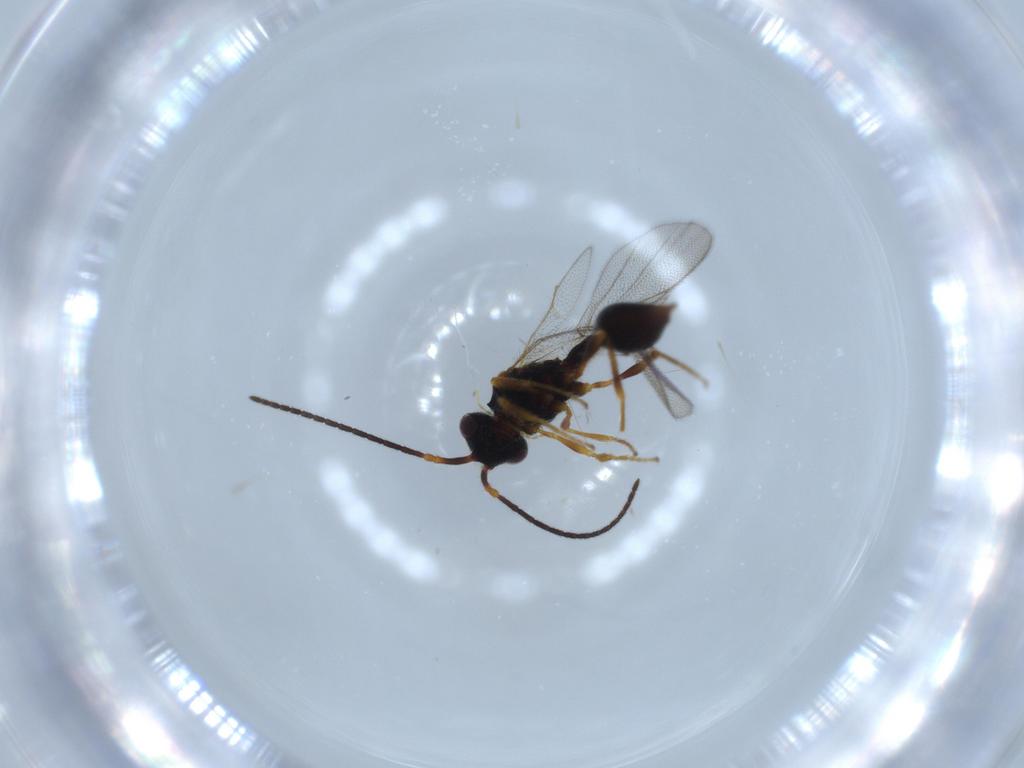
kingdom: Animalia
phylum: Arthropoda
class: Insecta
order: Hymenoptera
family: Diapriidae
